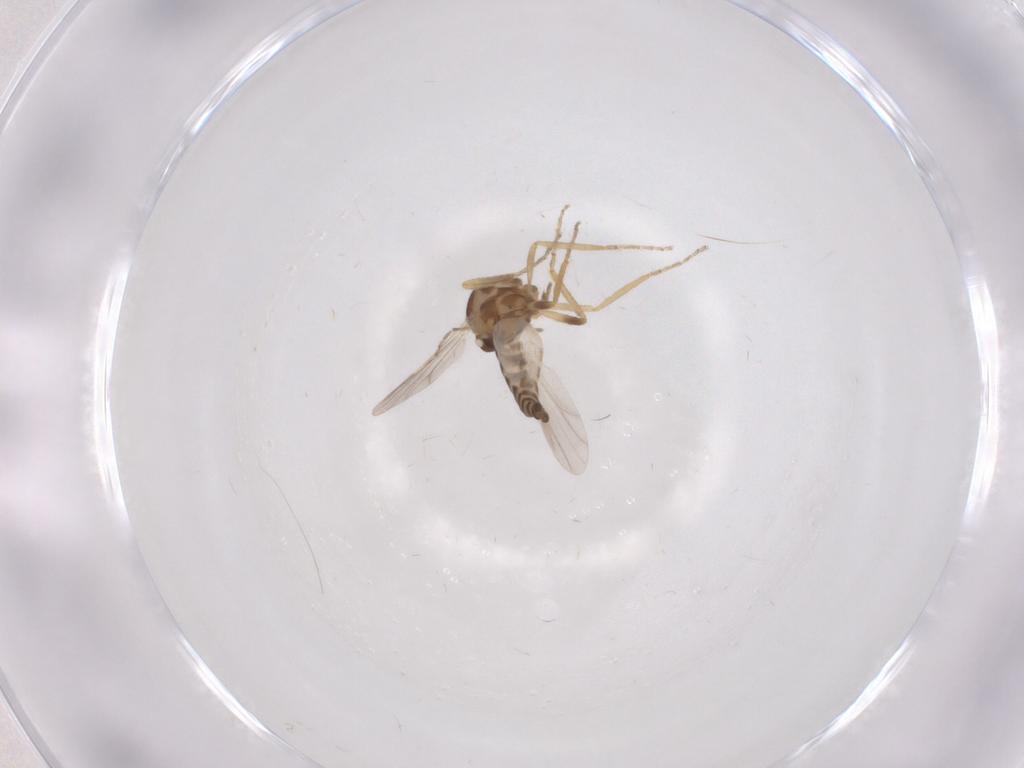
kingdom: Animalia
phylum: Arthropoda
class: Insecta
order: Diptera
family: Ceratopogonidae
